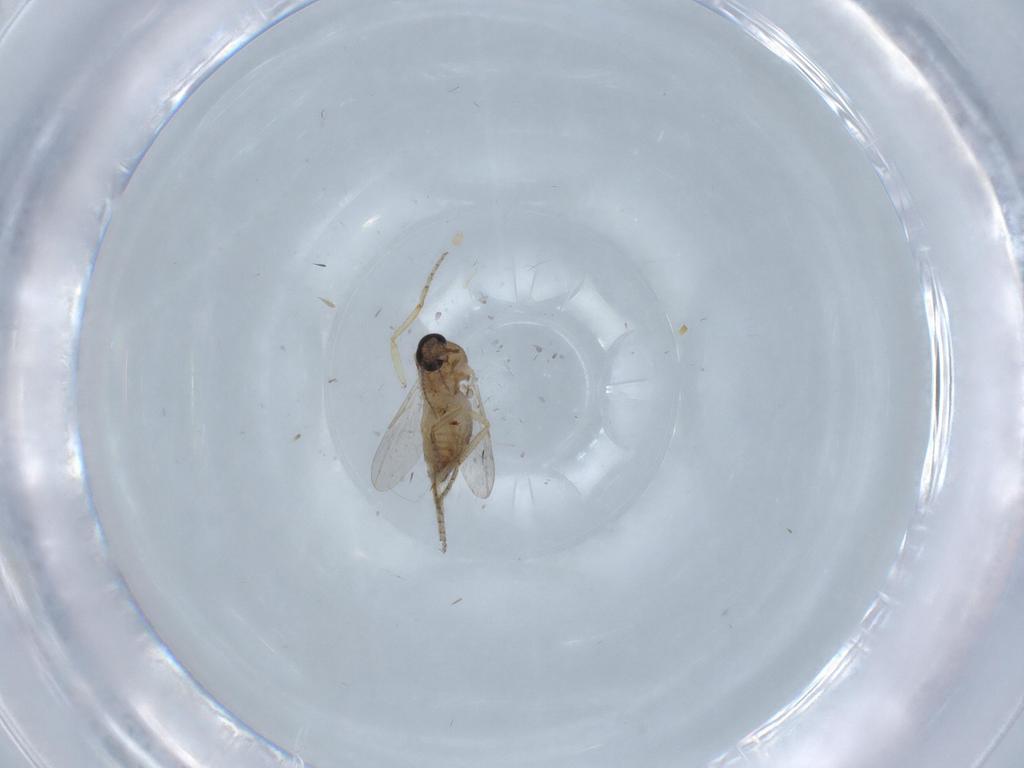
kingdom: Animalia
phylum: Arthropoda
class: Insecta
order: Diptera
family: Ceratopogonidae
